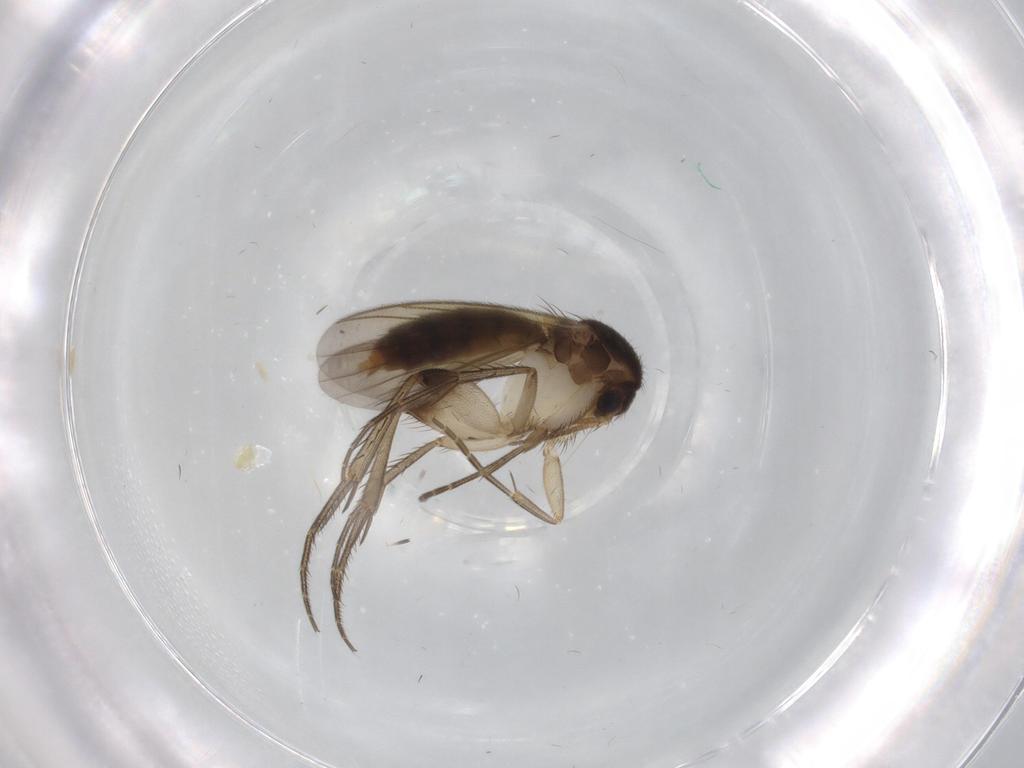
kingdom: Animalia
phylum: Arthropoda
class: Insecta
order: Diptera
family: Mycetophilidae
